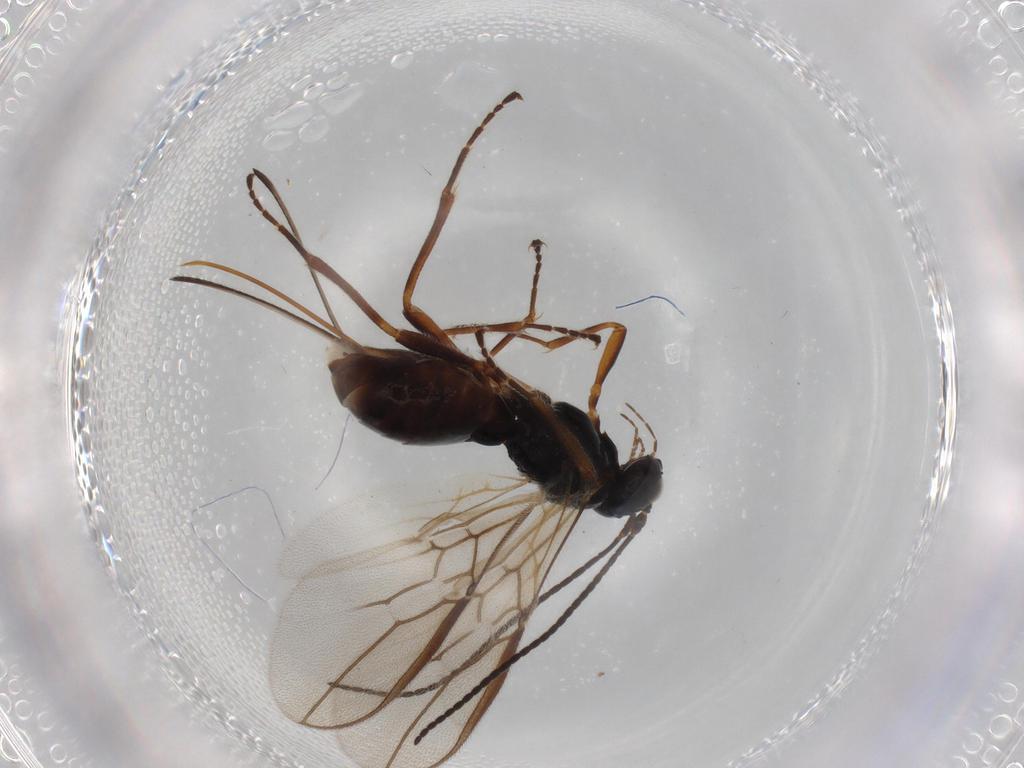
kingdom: Animalia
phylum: Arthropoda
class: Insecta
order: Hymenoptera
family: Braconidae
